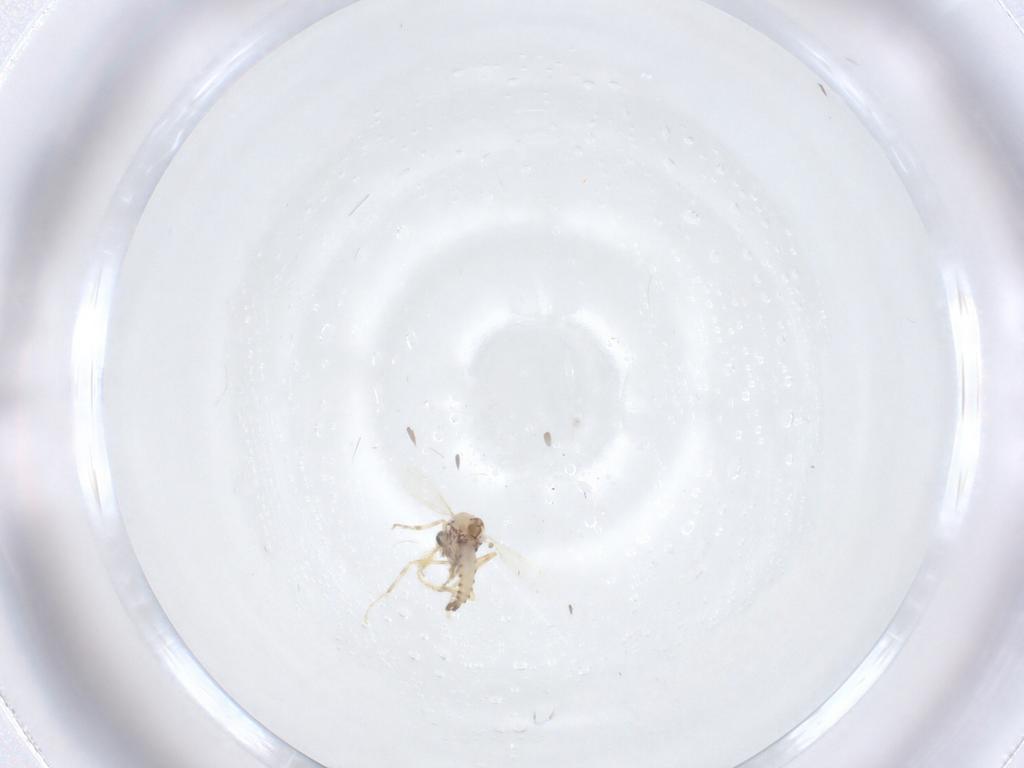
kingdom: Animalia
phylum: Arthropoda
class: Insecta
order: Diptera
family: Ceratopogonidae
